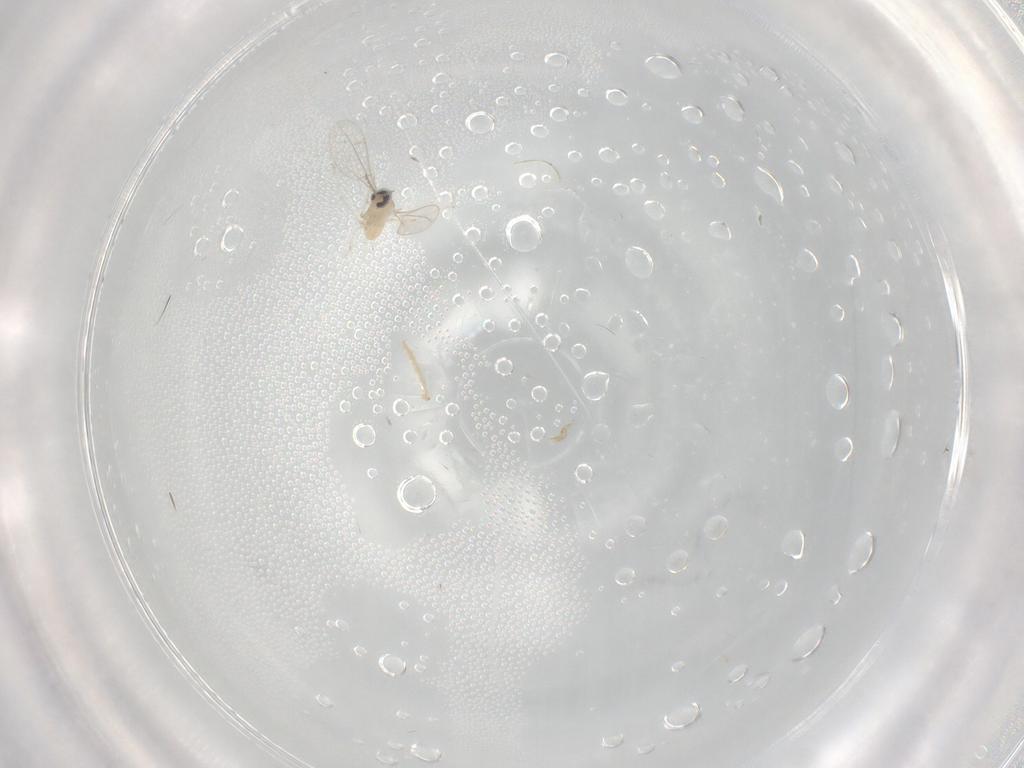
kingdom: Animalia
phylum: Arthropoda
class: Insecta
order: Diptera
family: Cecidomyiidae
